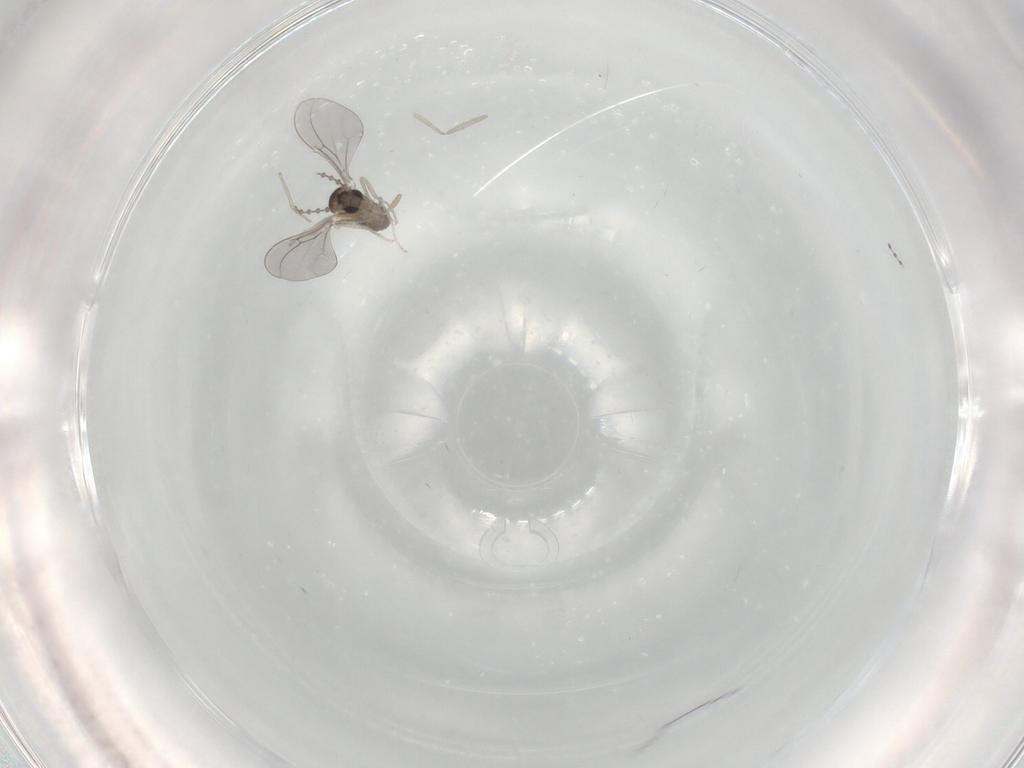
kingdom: Animalia
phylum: Arthropoda
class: Insecta
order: Diptera
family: Cecidomyiidae
